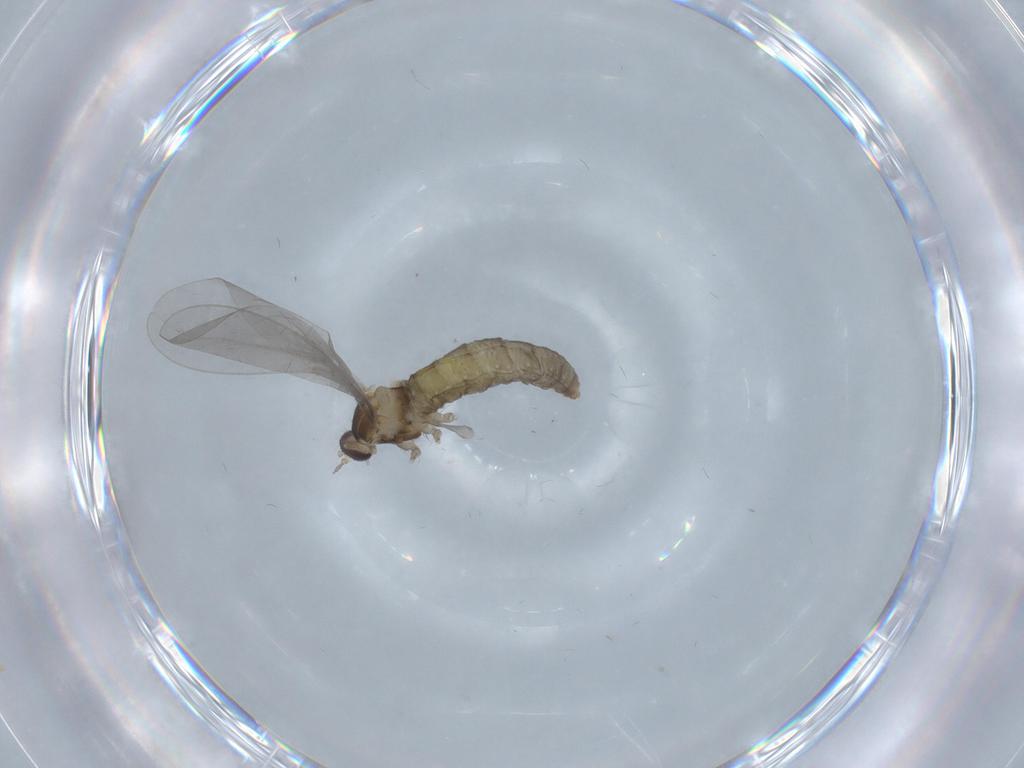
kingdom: Animalia
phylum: Arthropoda
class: Insecta
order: Diptera
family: Cecidomyiidae
